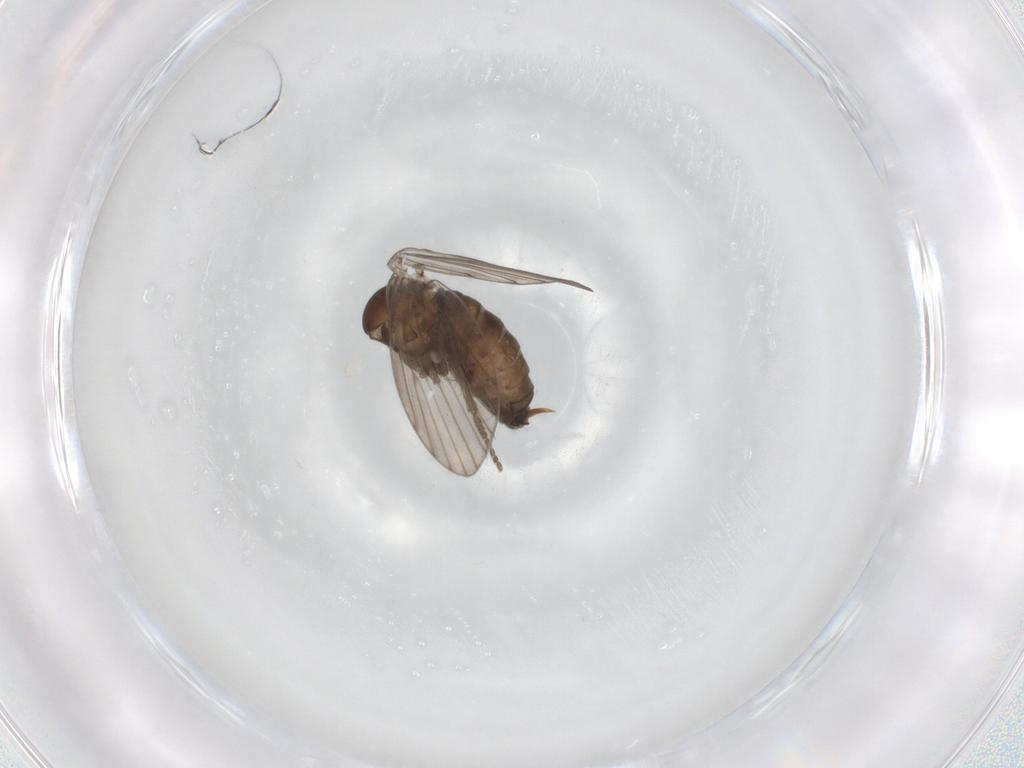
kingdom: Animalia
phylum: Arthropoda
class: Insecta
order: Diptera
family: Psychodidae
